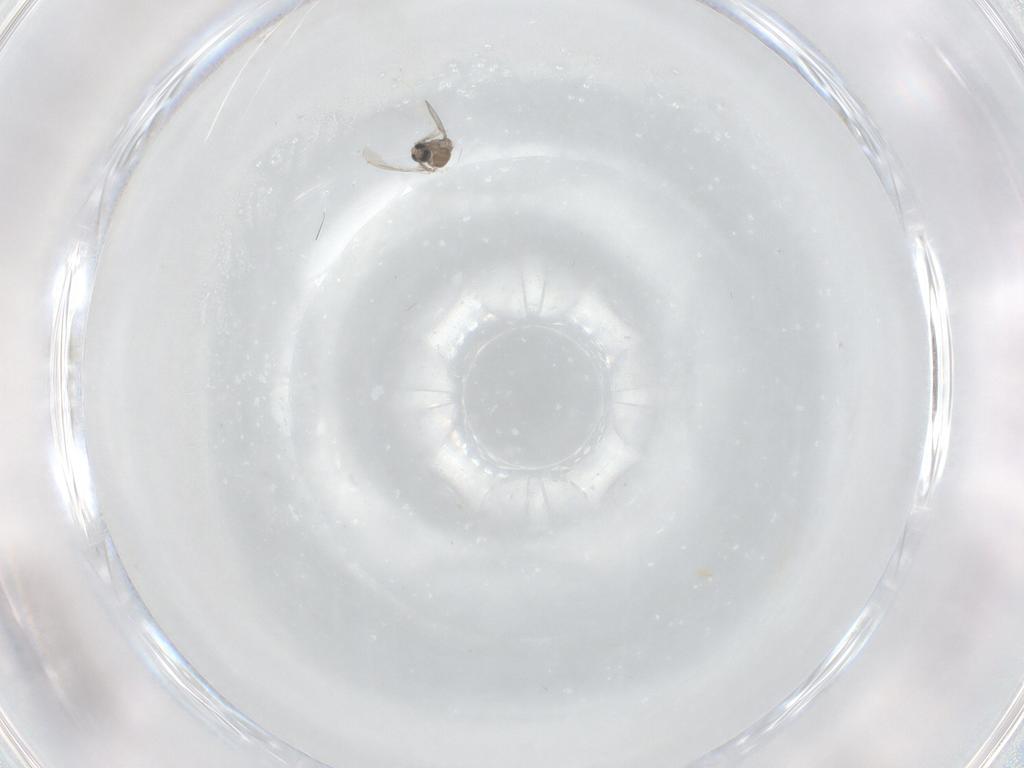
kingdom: Animalia
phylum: Arthropoda
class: Insecta
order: Diptera
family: Cecidomyiidae
